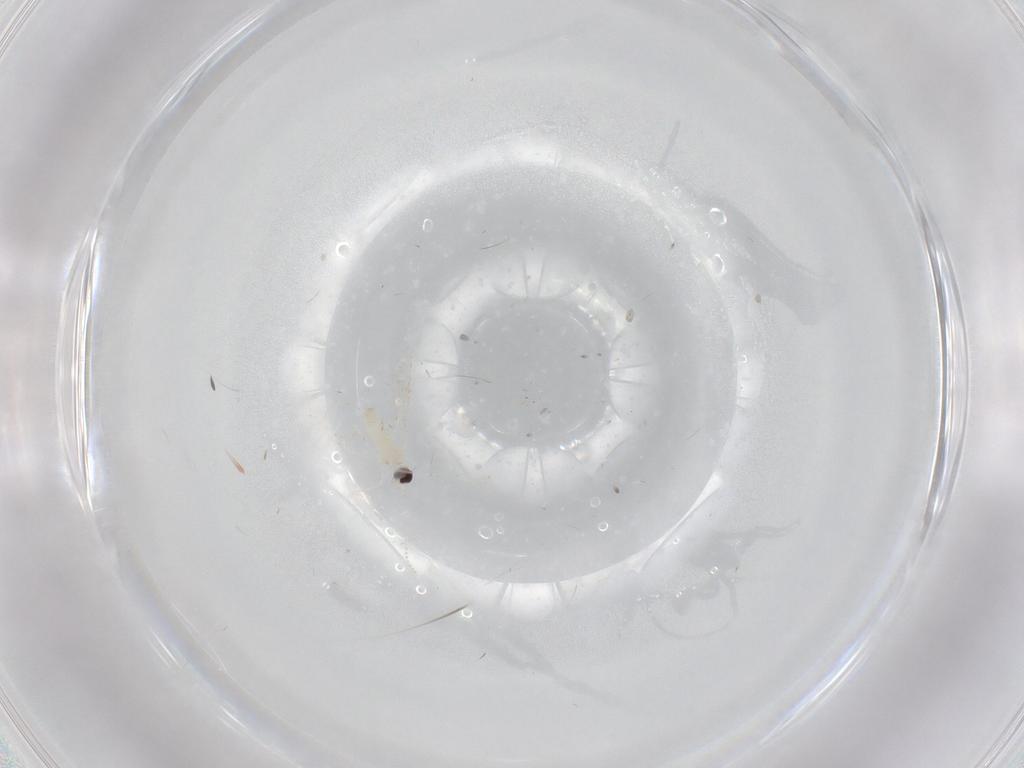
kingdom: Animalia
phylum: Arthropoda
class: Insecta
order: Diptera
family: Cecidomyiidae
